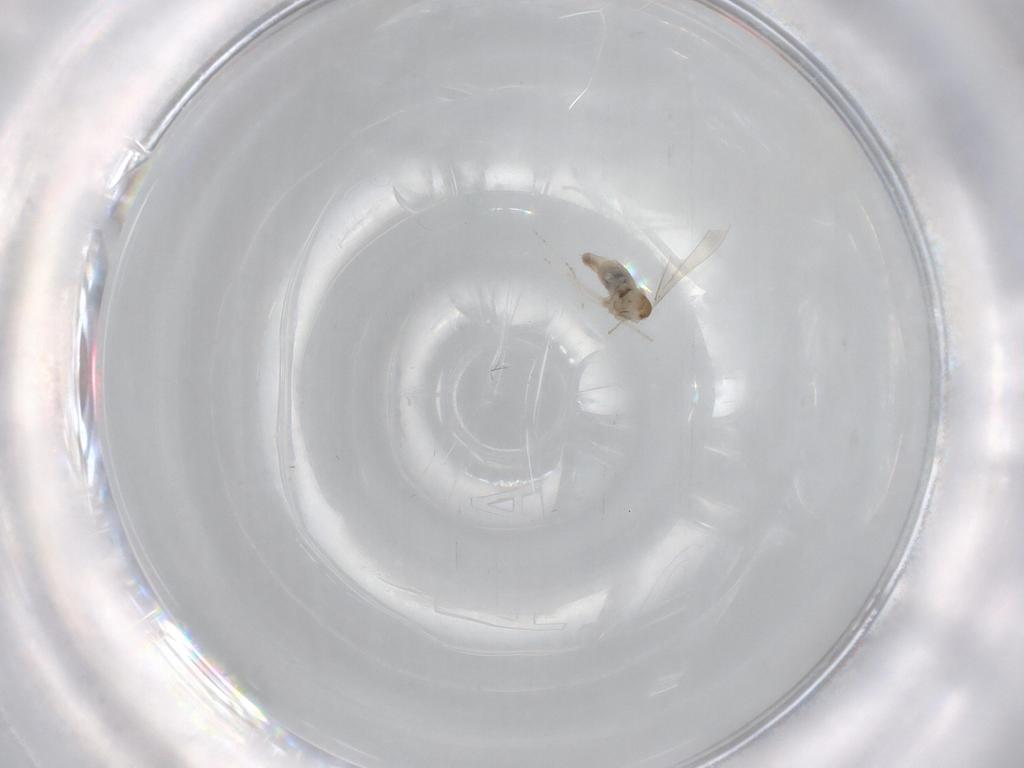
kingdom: Animalia
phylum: Arthropoda
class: Insecta
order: Diptera
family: Cecidomyiidae
